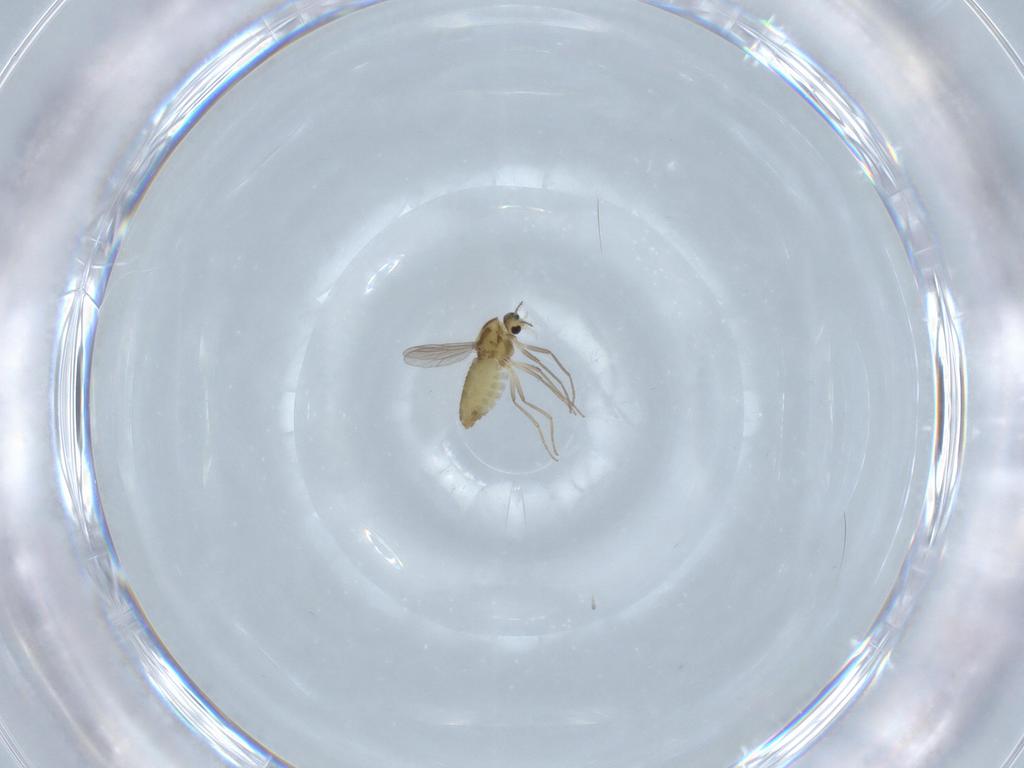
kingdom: Animalia
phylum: Arthropoda
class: Insecta
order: Diptera
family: Chironomidae
